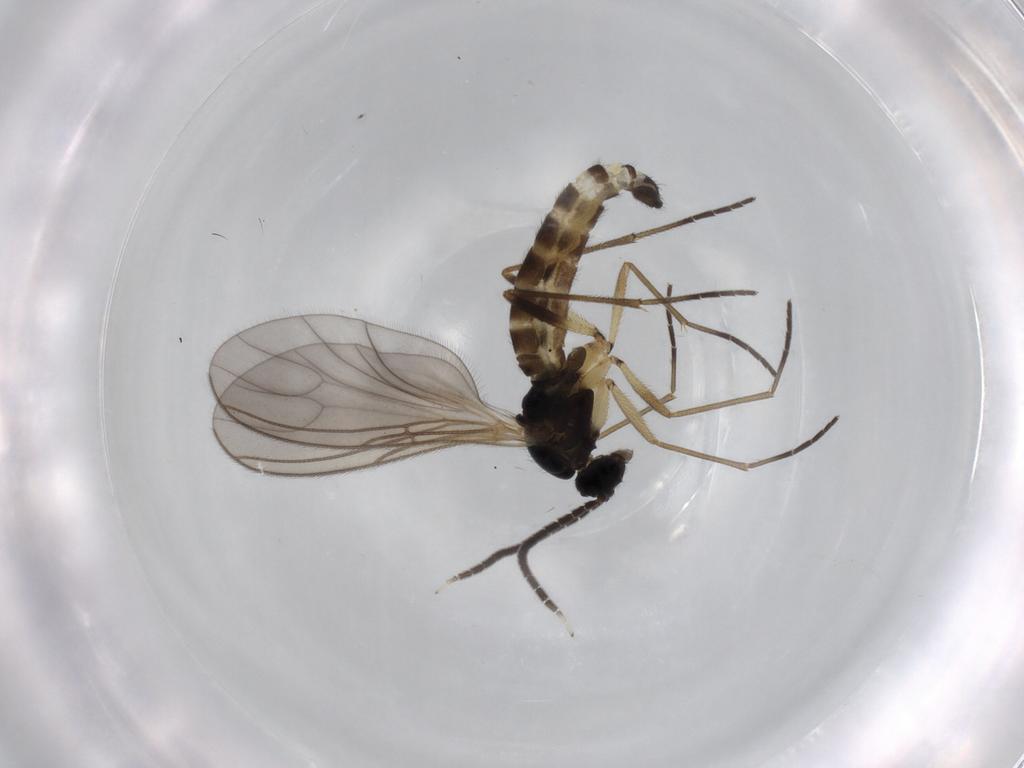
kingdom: Animalia
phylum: Arthropoda
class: Insecta
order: Diptera
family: Sciaridae
